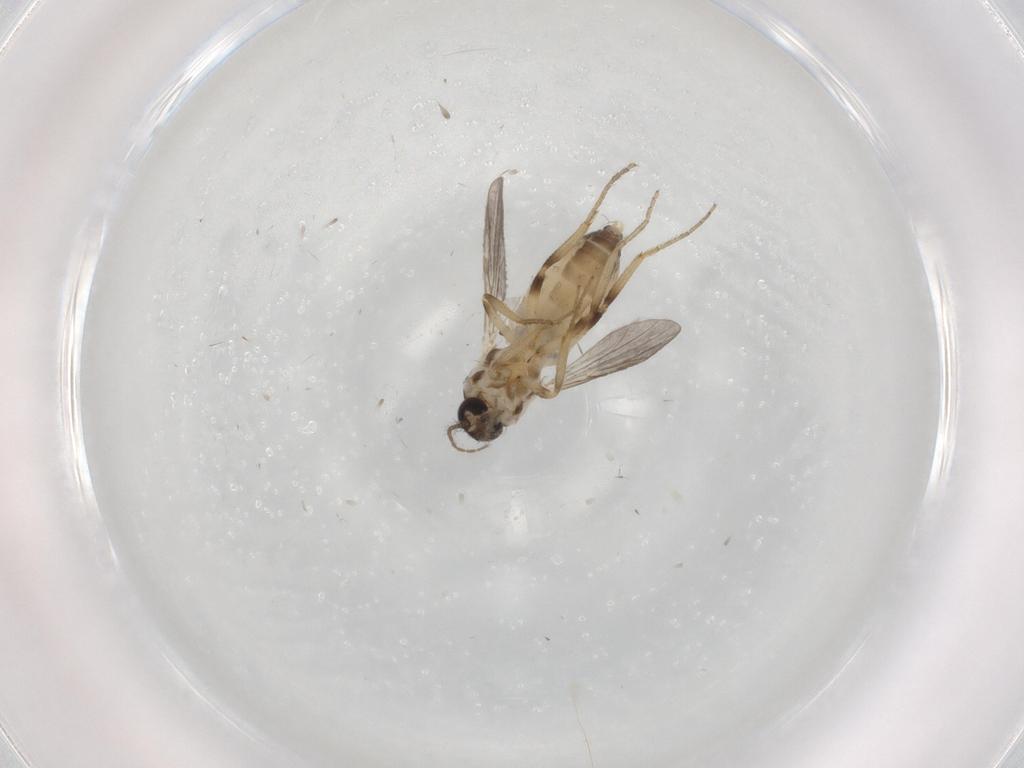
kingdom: Animalia
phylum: Arthropoda
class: Insecta
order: Diptera
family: Ceratopogonidae
